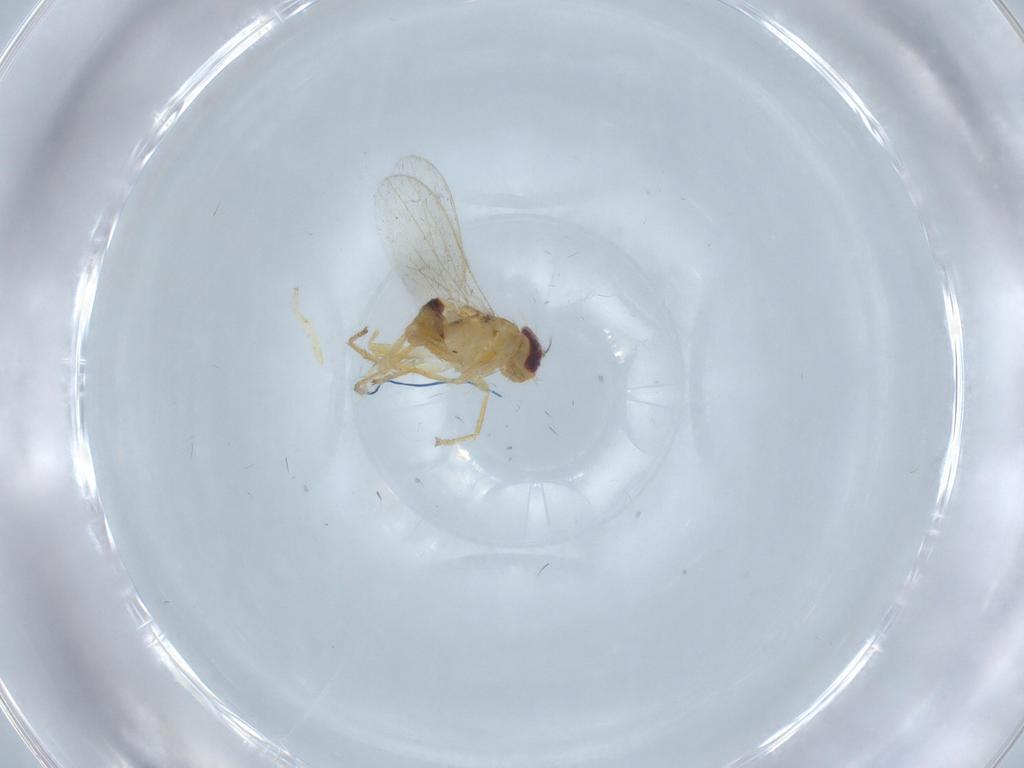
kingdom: Animalia
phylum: Arthropoda
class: Insecta
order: Diptera
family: Periscelididae
